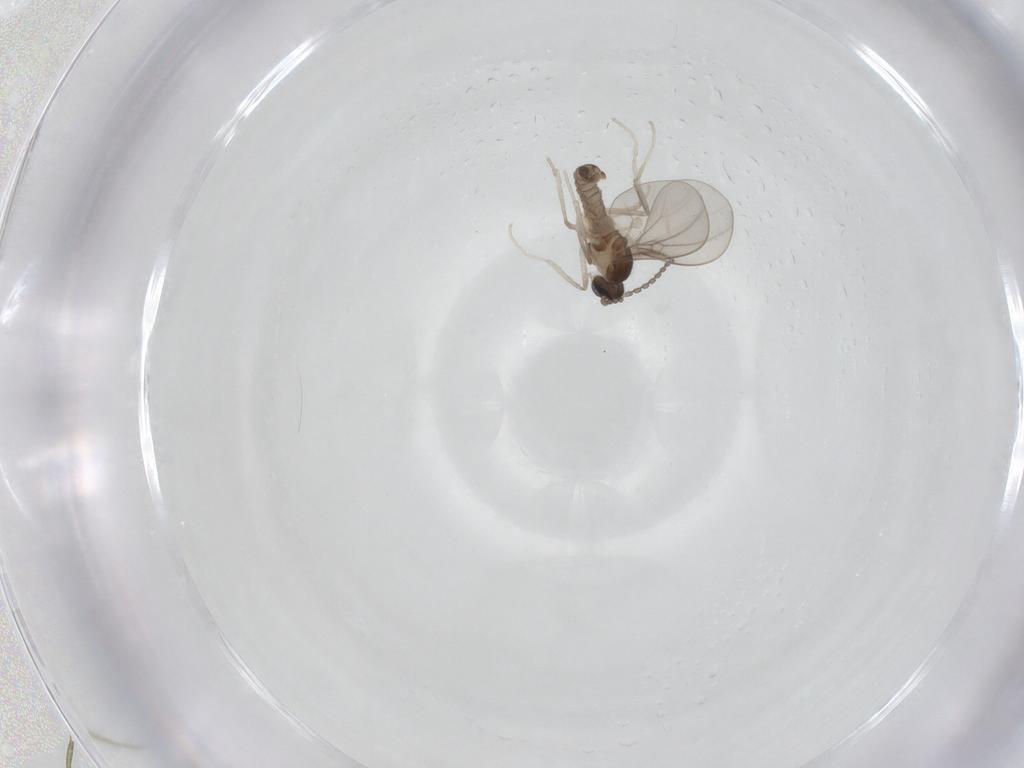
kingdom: Animalia
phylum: Arthropoda
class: Insecta
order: Diptera
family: Cecidomyiidae
